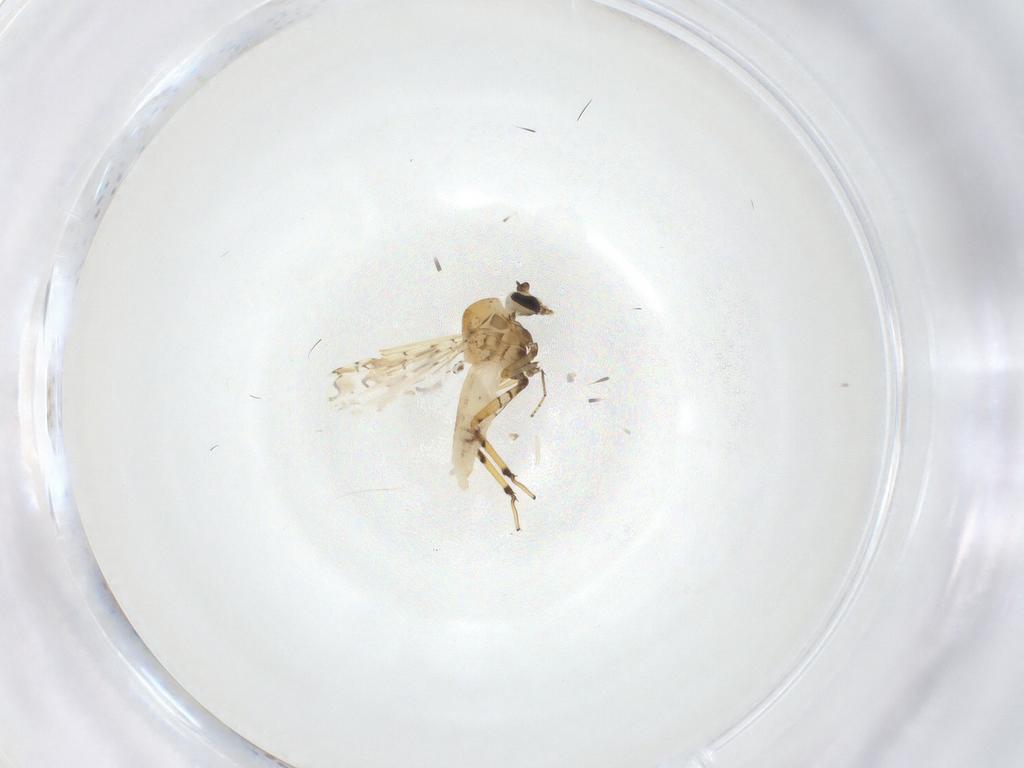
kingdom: Animalia
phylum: Arthropoda
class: Insecta
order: Diptera
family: Ceratopogonidae
